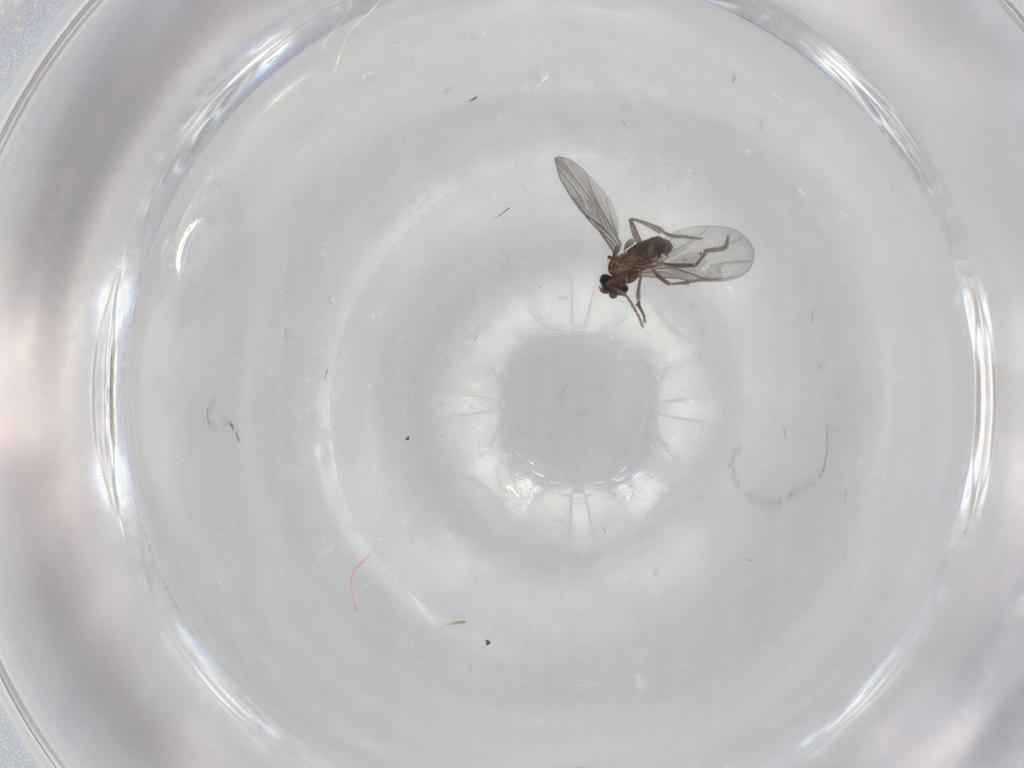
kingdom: Animalia
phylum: Arthropoda
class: Insecta
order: Diptera
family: Phoridae
